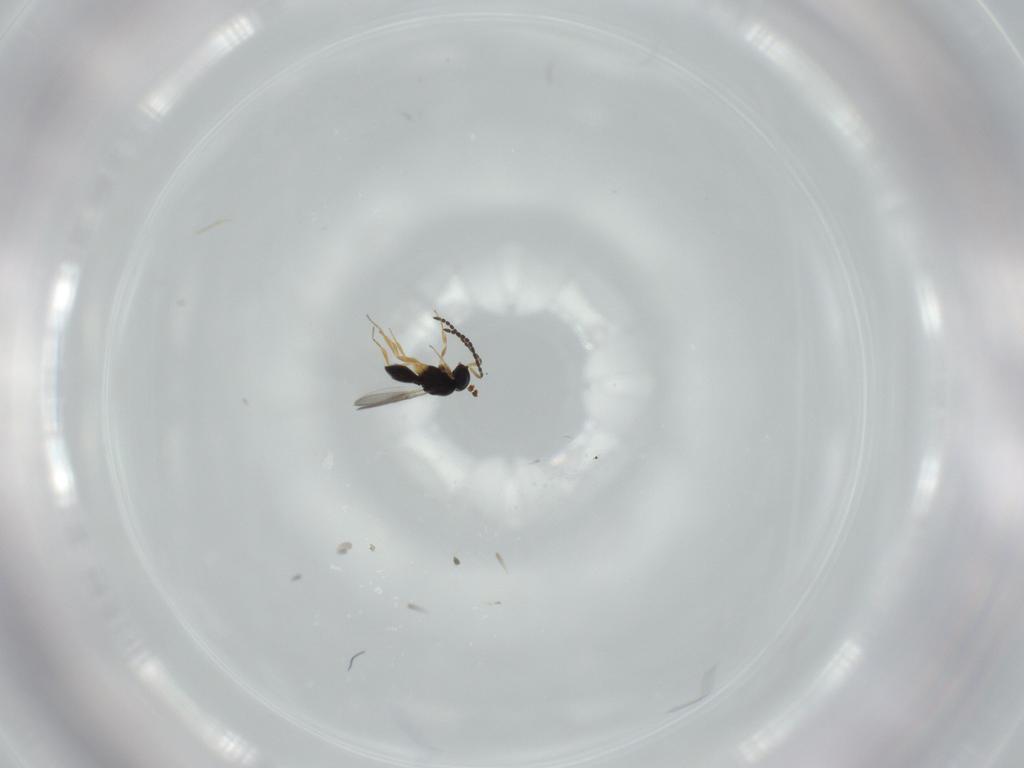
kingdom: Animalia
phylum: Arthropoda
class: Insecta
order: Hymenoptera
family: Scelionidae
